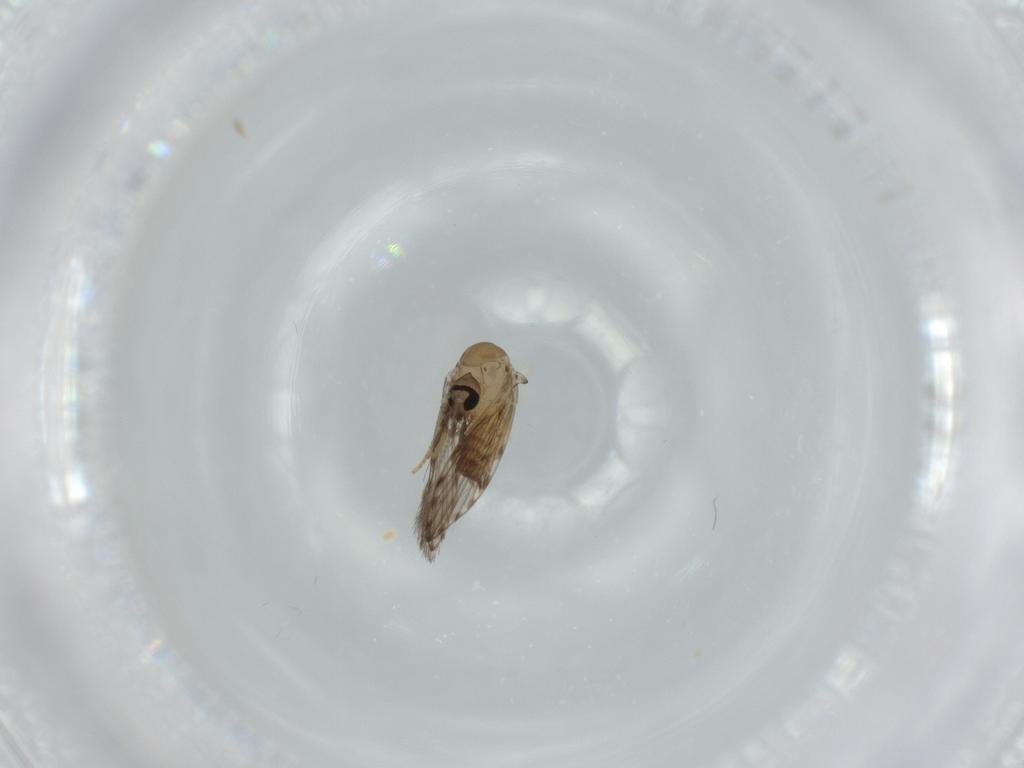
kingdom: Animalia
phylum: Arthropoda
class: Insecta
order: Diptera
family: Psychodidae
